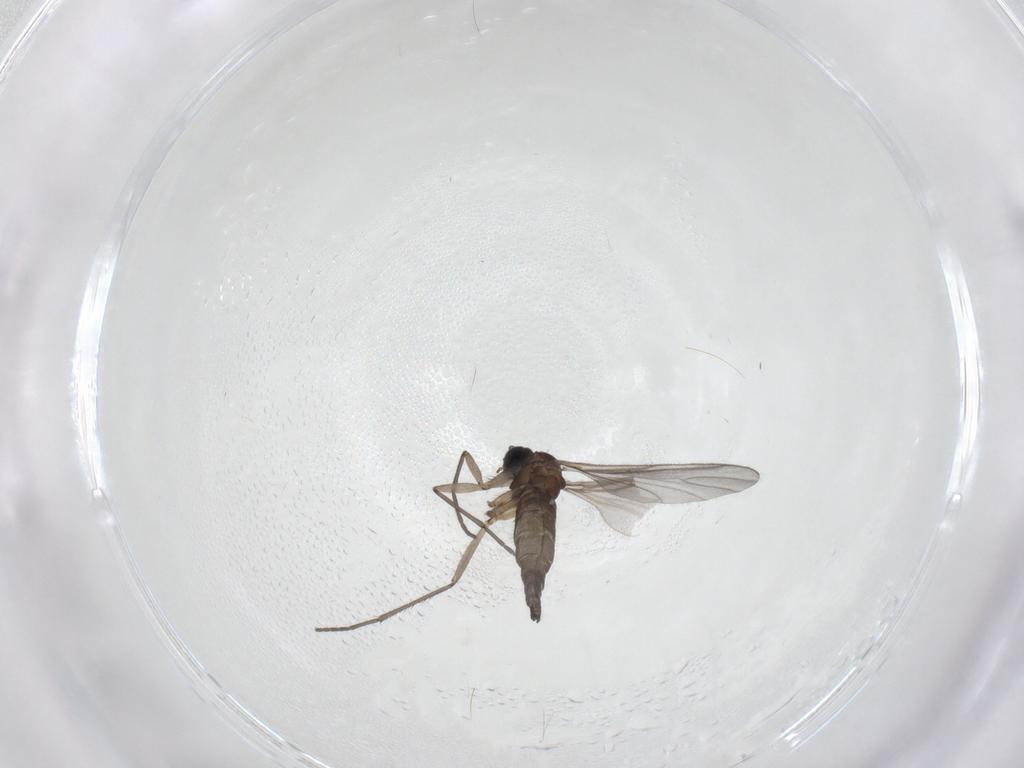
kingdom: Animalia
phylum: Arthropoda
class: Insecta
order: Diptera
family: Sciaridae
